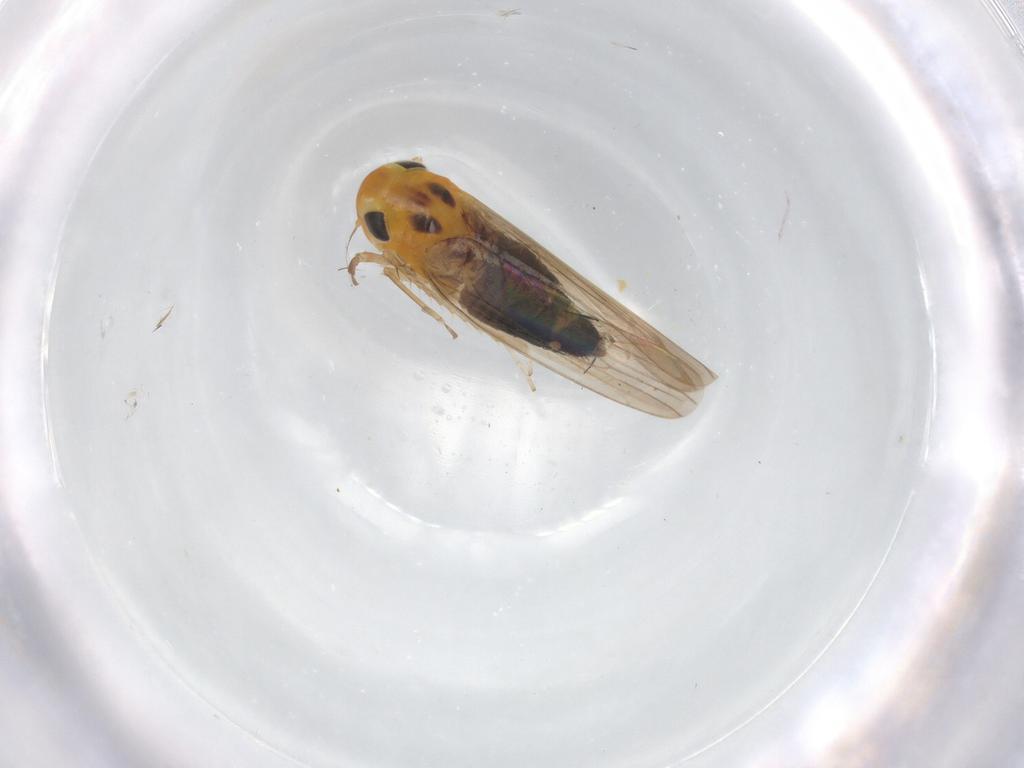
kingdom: Animalia
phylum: Arthropoda
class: Insecta
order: Hemiptera
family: Cicadellidae
